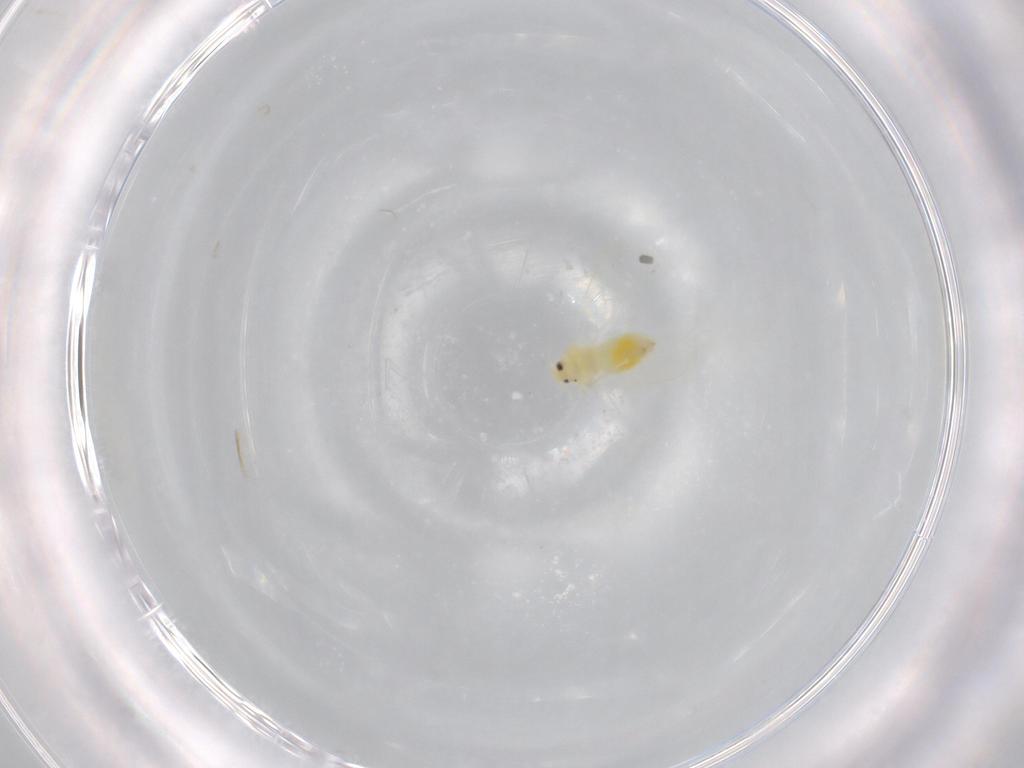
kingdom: Animalia
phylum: Arthropoda
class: Insecta
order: Hemiptera
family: Aleyrodidae
